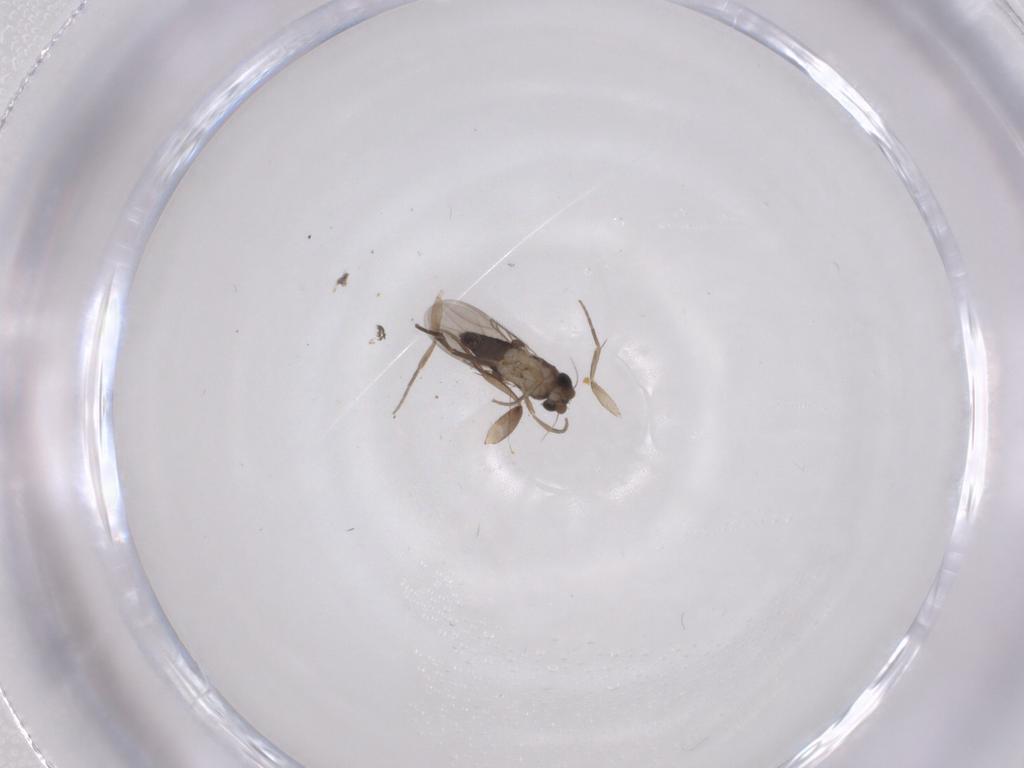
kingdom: Animalia
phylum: Arthropoda
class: Insecta
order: Diptera
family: Phoridae
